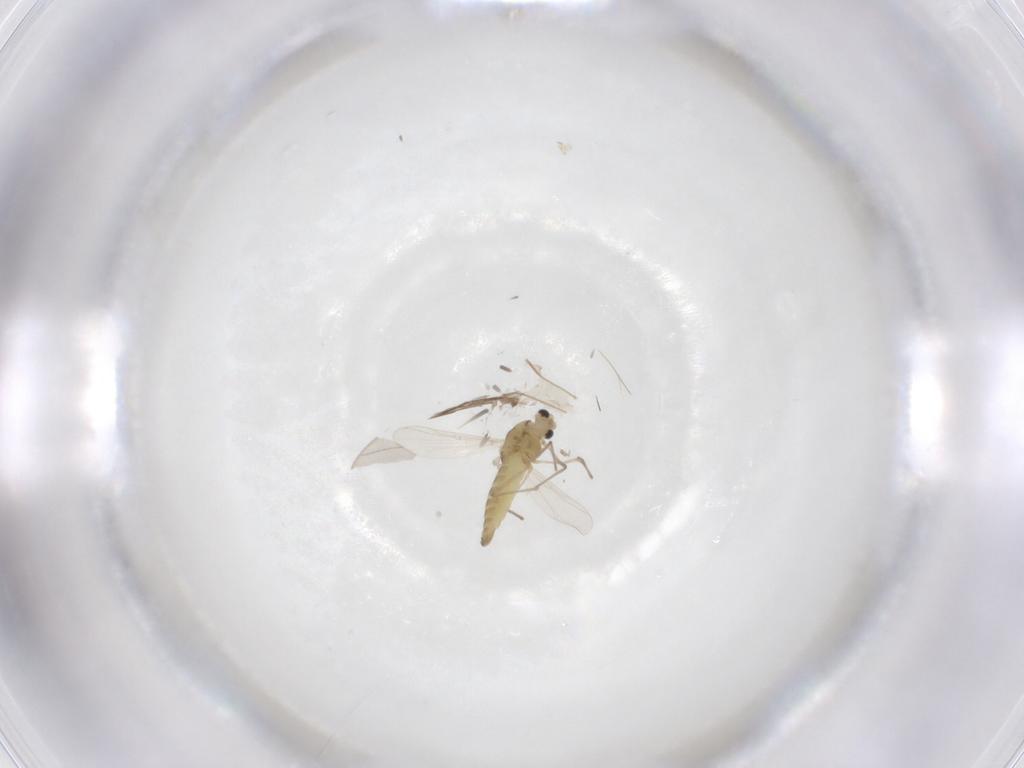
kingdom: Animalia
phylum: Arthropoda
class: Insecta
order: Diptera
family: Chironomidae
